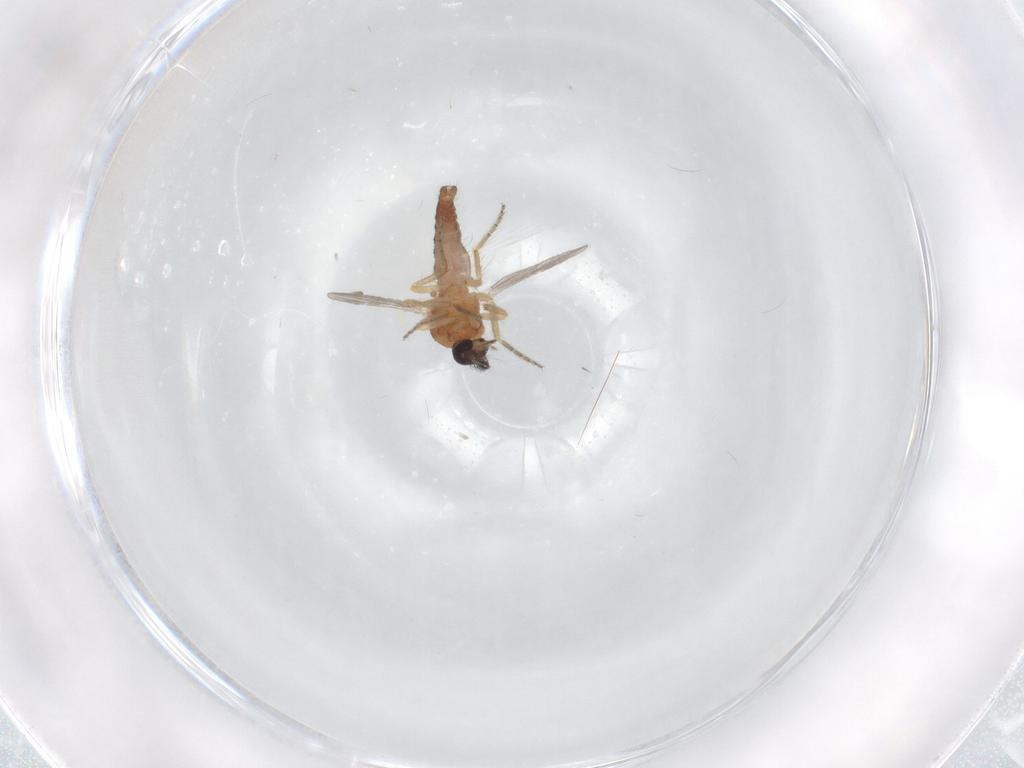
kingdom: Animalia
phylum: Arthropoda
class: Insecta
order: Diptera
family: Ceratopogonidae
